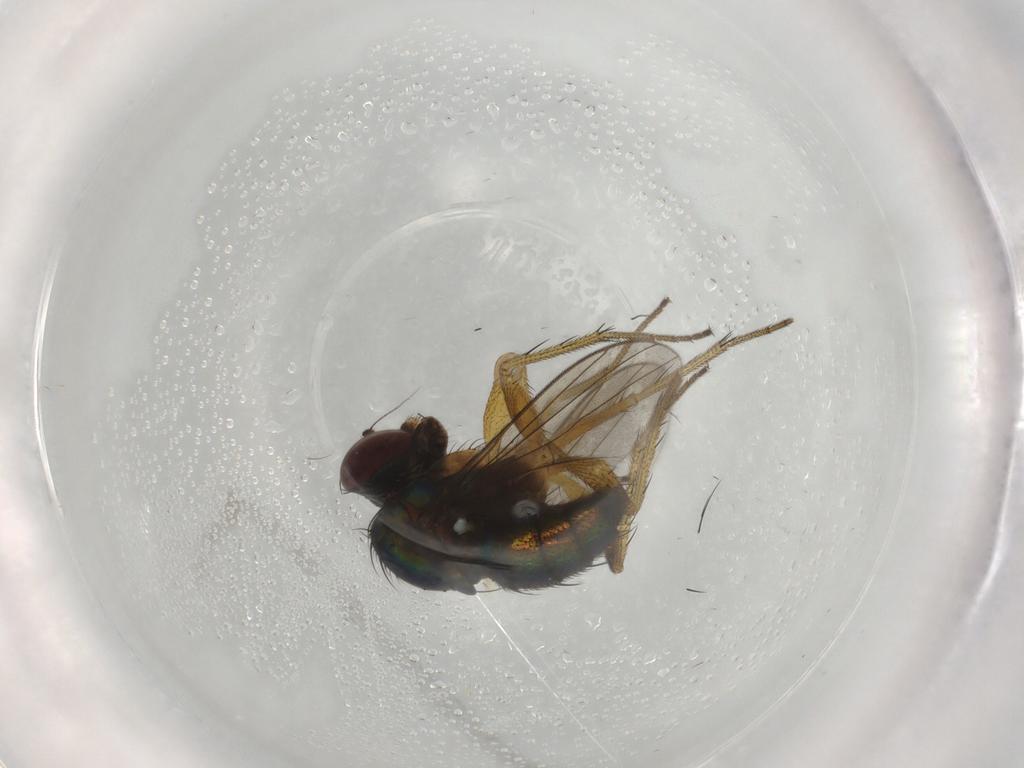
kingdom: Animalia
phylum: Arthropoda
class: Insecta
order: Diptera
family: Dolichopodidae
